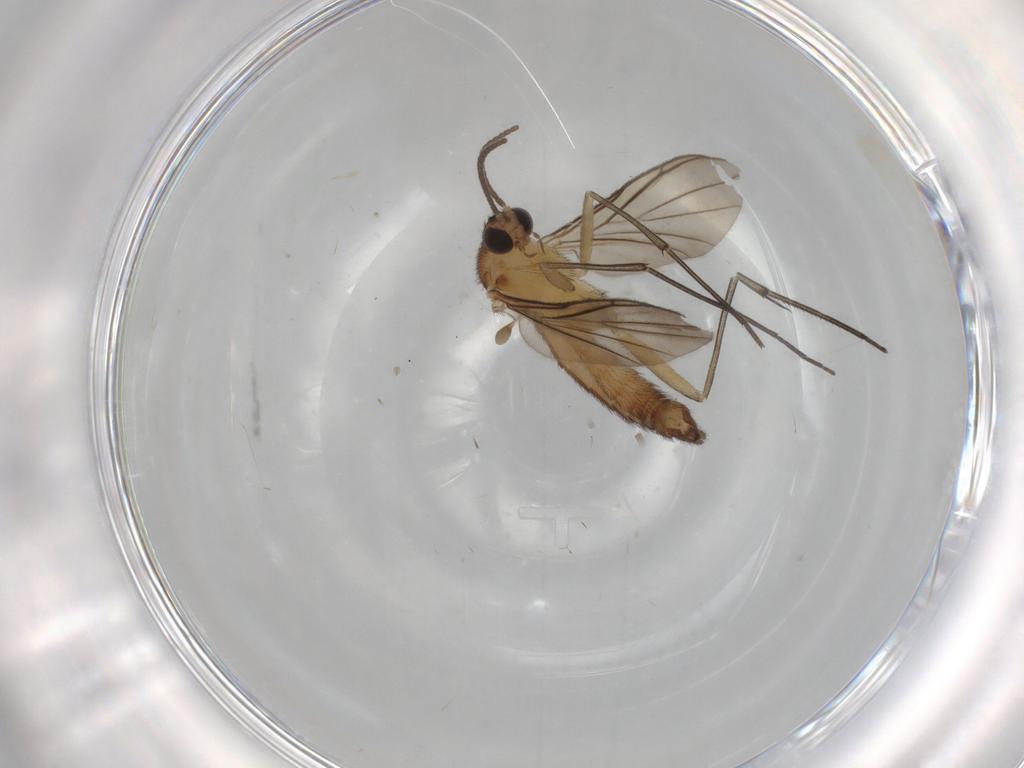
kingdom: Animalia
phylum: Arthropoda
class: Insecta
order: Diptera
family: Keroplatidae
